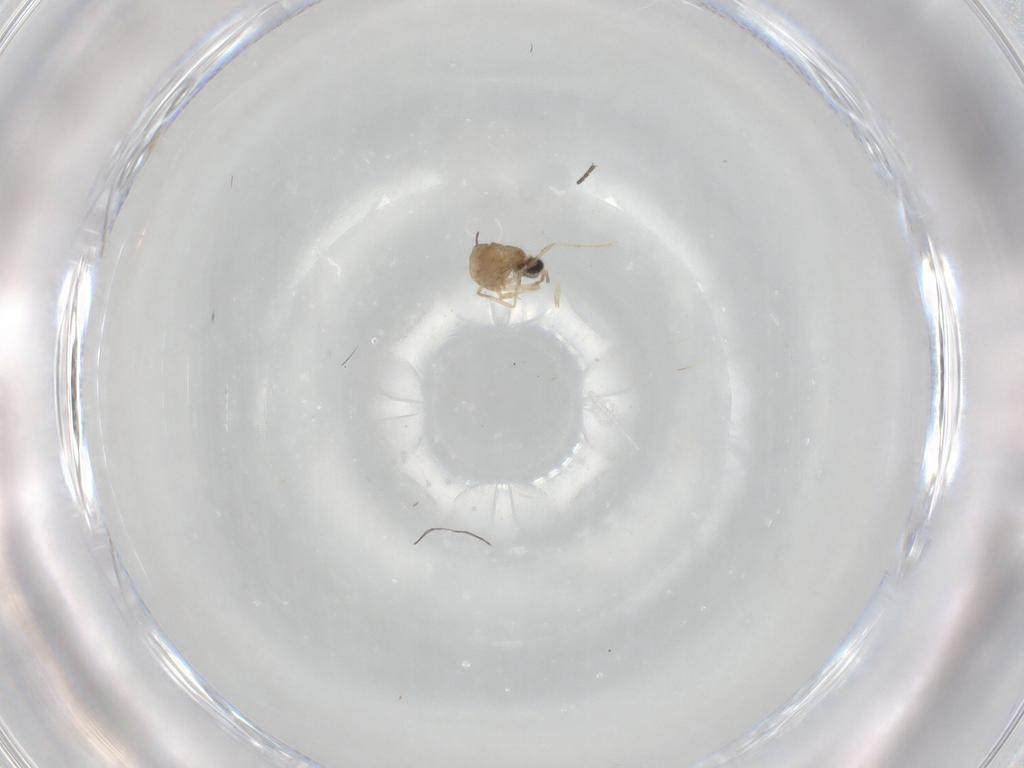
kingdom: Animalia
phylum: Arthropoda
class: Insecta
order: Diptera
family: Cecidomyiidae
